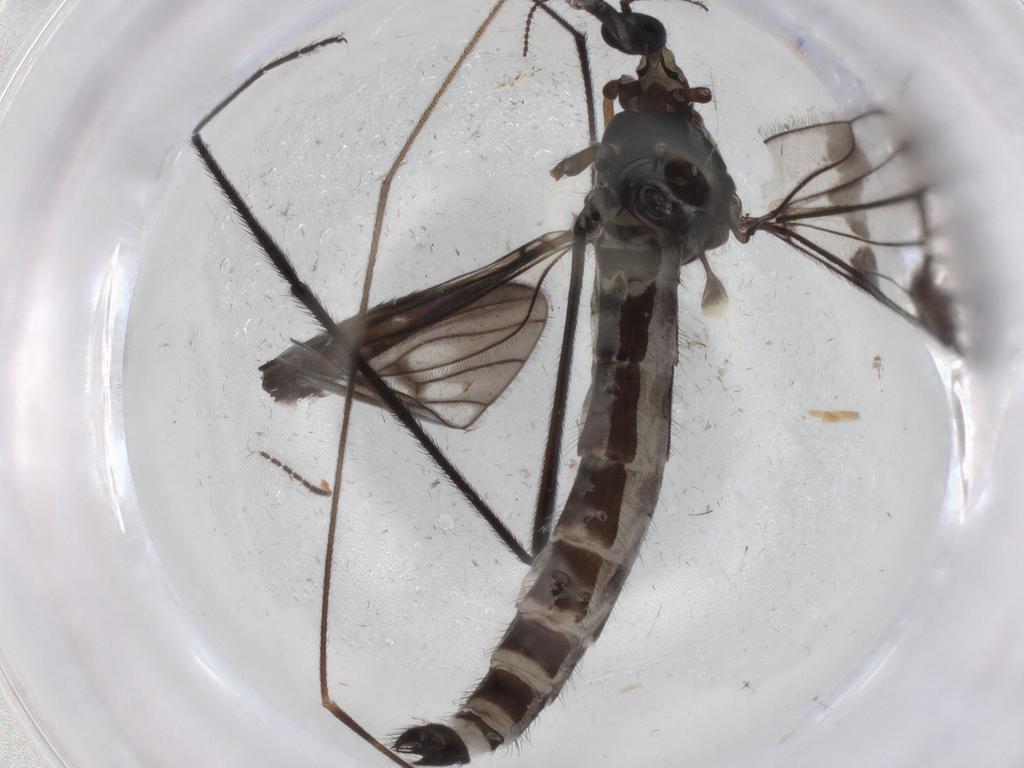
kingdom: Animalia
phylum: Arthropoda
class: Insecta
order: Diptera
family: Limoniidae
